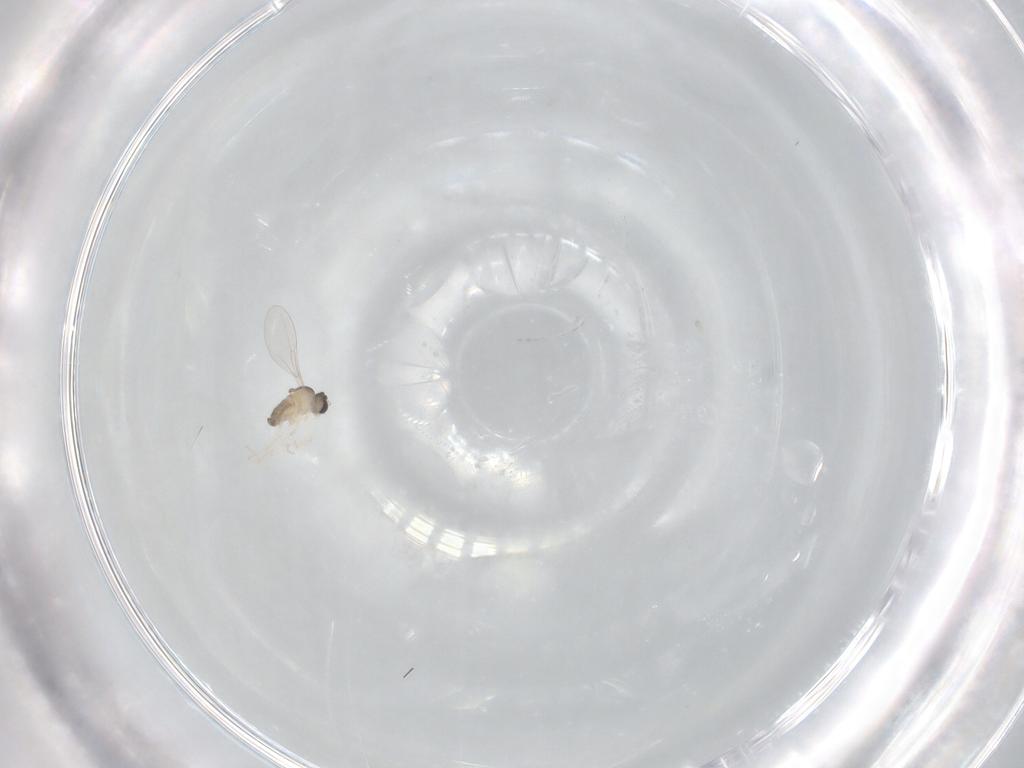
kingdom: Animalia
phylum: Arthropoda
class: Insecta
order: Diptera
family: Cecidomyiidae
